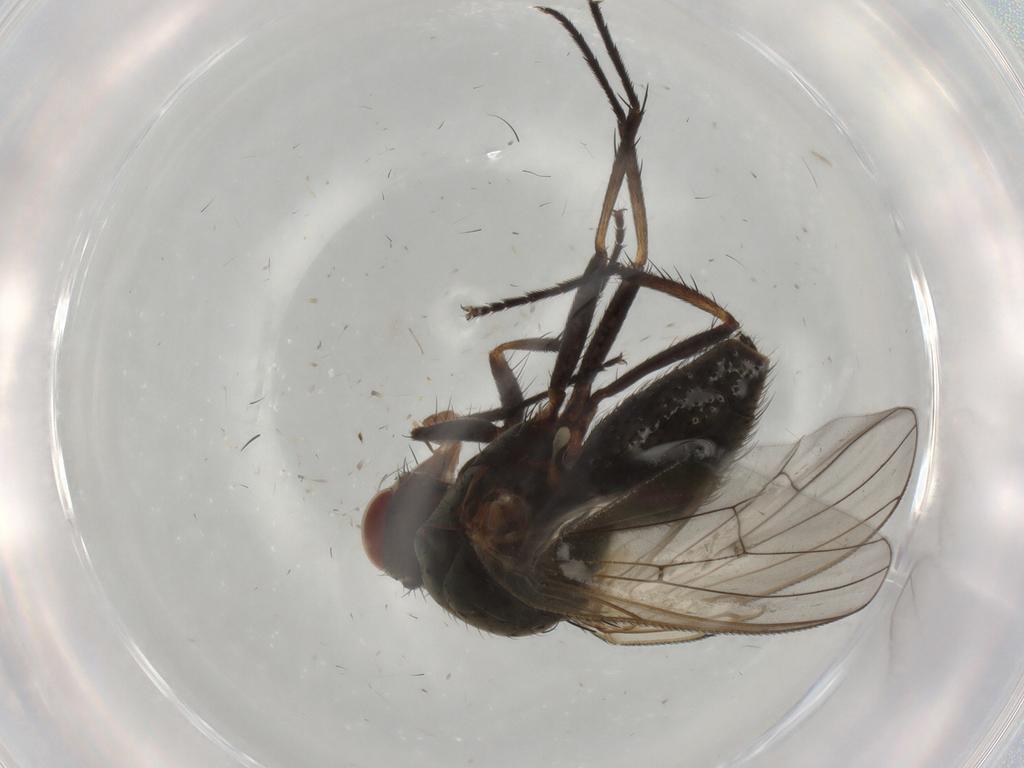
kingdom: Animalia
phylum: Arthropoda
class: Insecta
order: Diptera
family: Anthomyiidae
